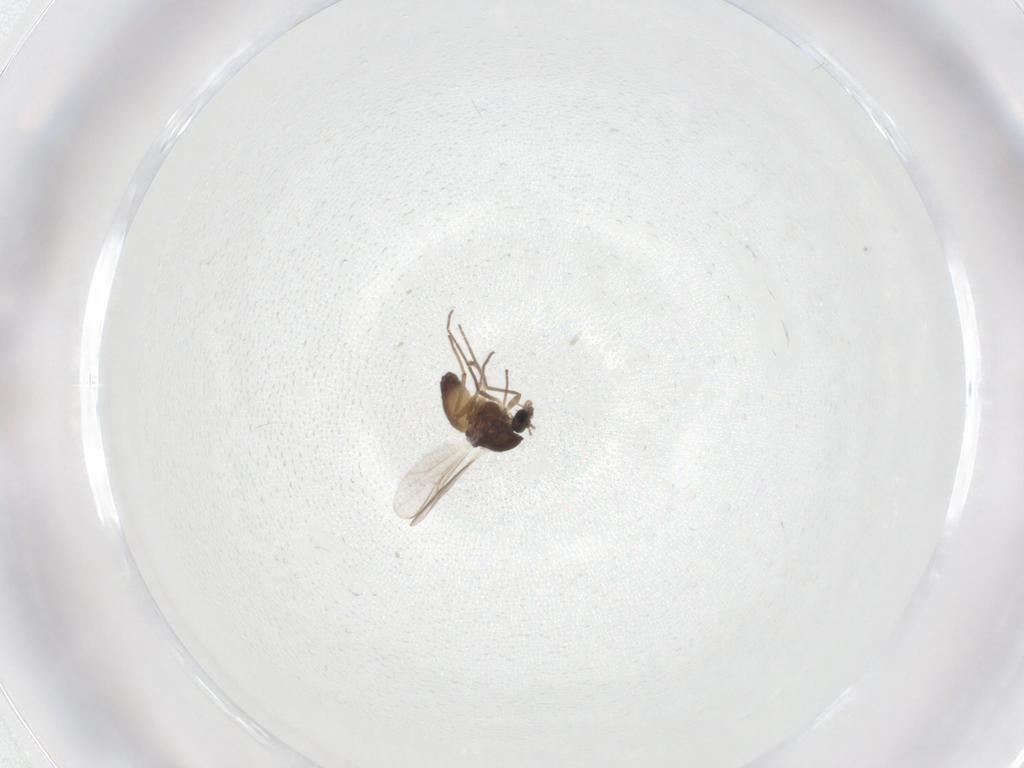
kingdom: Animalia
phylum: Arthropoda
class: Insecta
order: Diptera
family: Chironomidae
